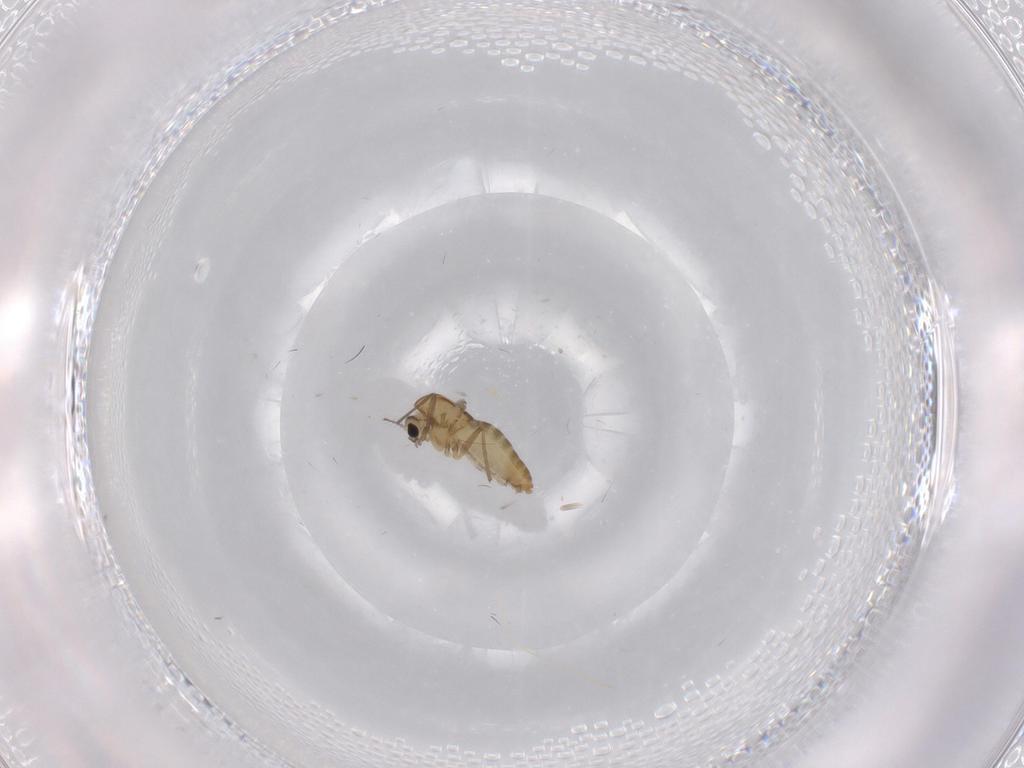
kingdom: Animalia
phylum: Arthropoda
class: Insecta
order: Diptera
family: Chironomidae
